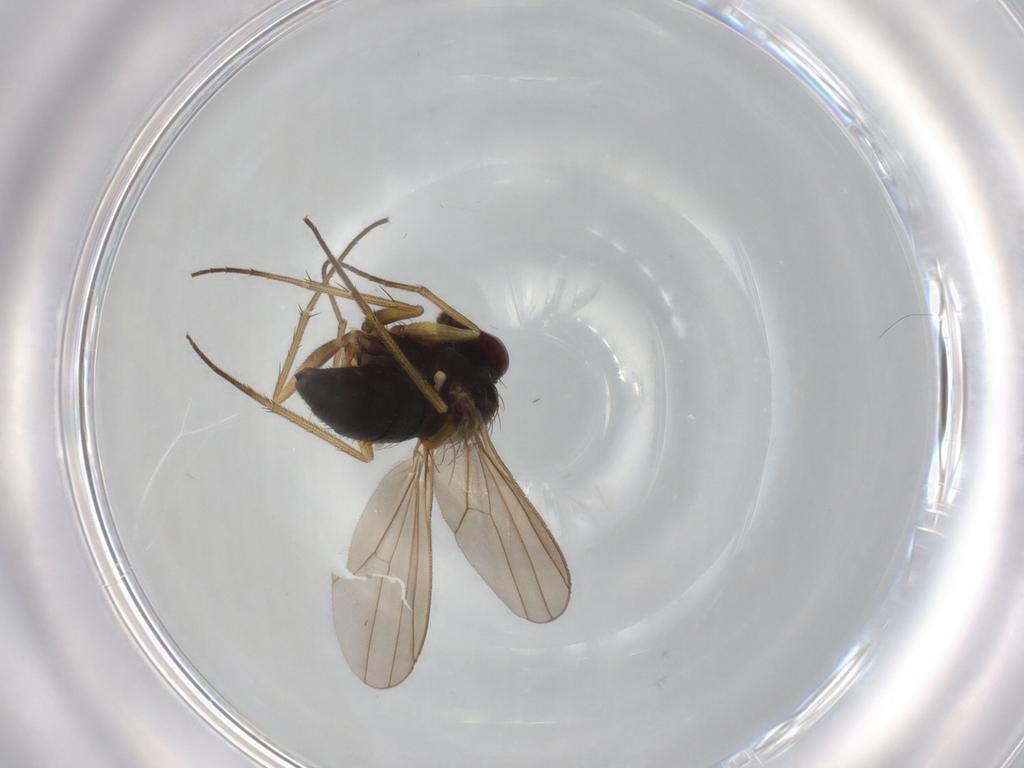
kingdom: Animalia
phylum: Arthropoda
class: Insecta
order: Diptera
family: Cecidomyiidae
